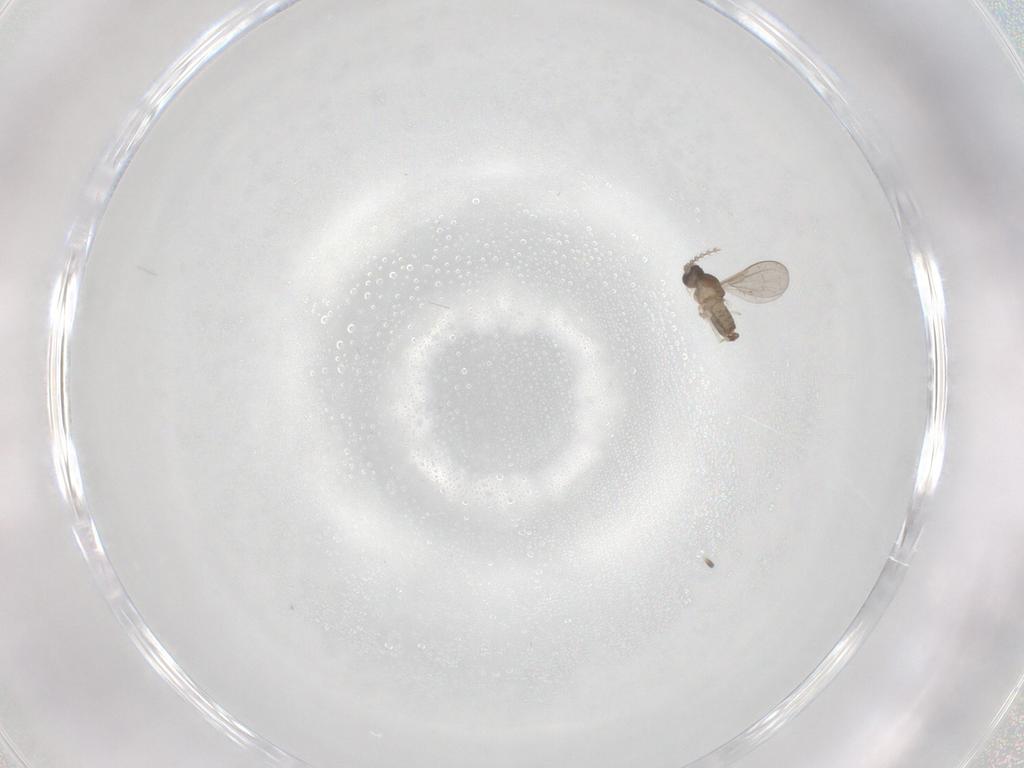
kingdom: Animalia
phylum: Arthropoda
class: Insecta
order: Diptera
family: Cecidomyiidae
